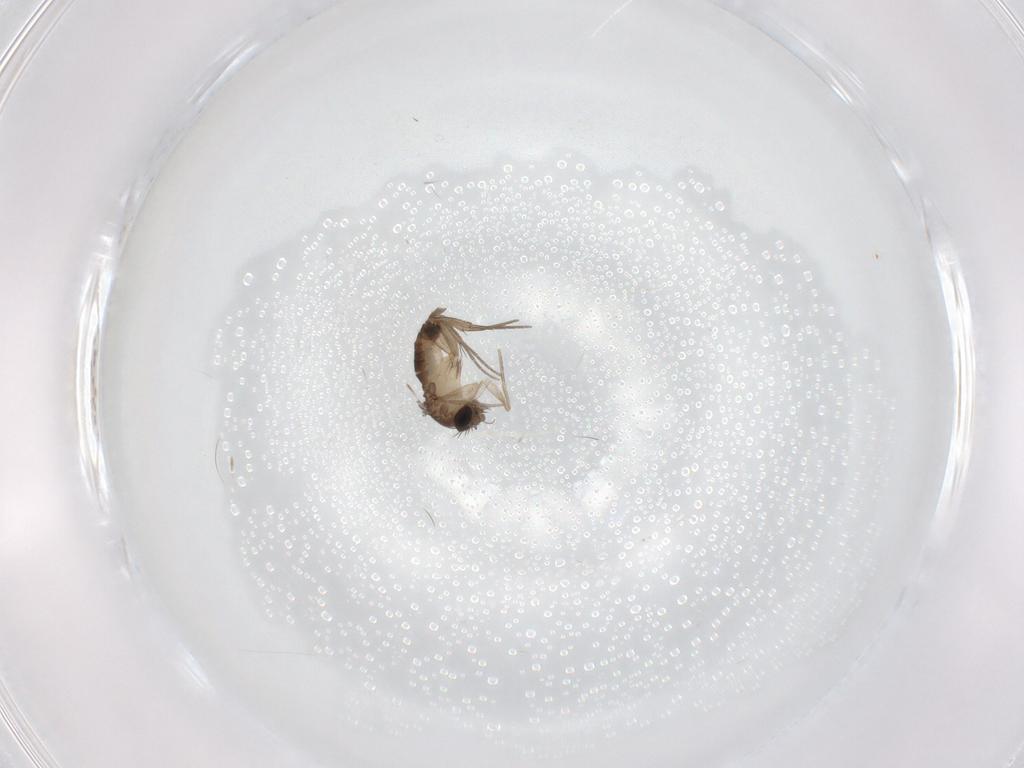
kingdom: Animalia
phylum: Arthropoda
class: Insecta
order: Diptera
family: Phoridae
